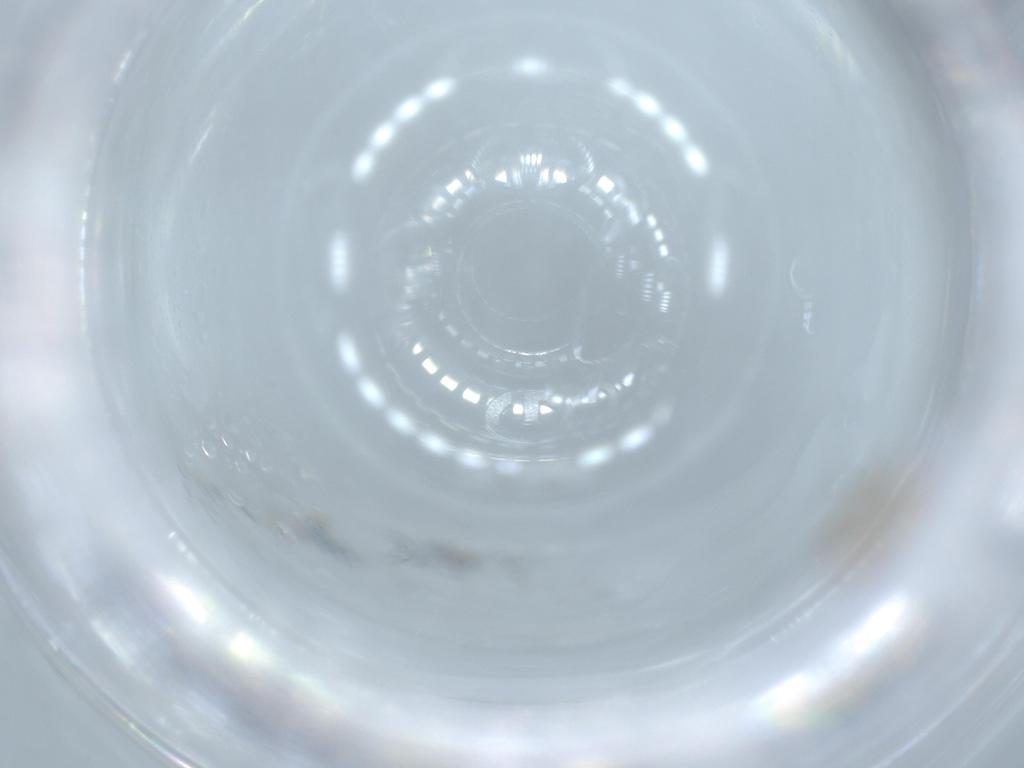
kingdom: Animalia
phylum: Arthropoda
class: Insecta
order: Hymenoptera
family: Formicidae
